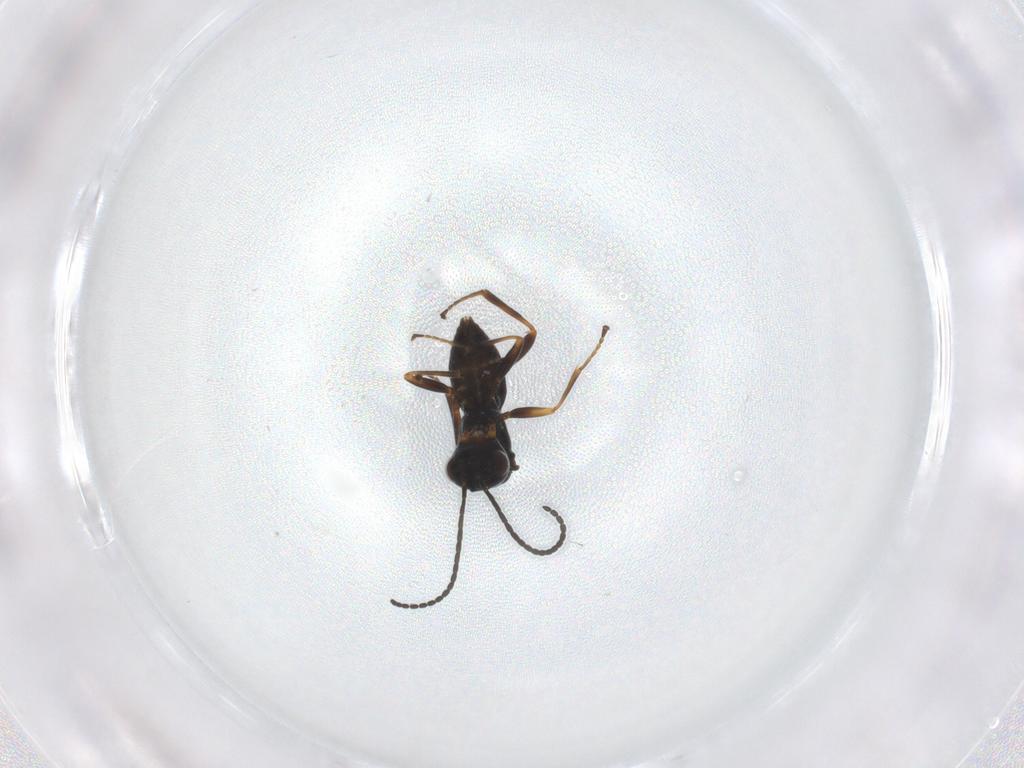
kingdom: Animalia
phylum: Arthropoda
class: Insecta
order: Hymenoptera
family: Braconidae
